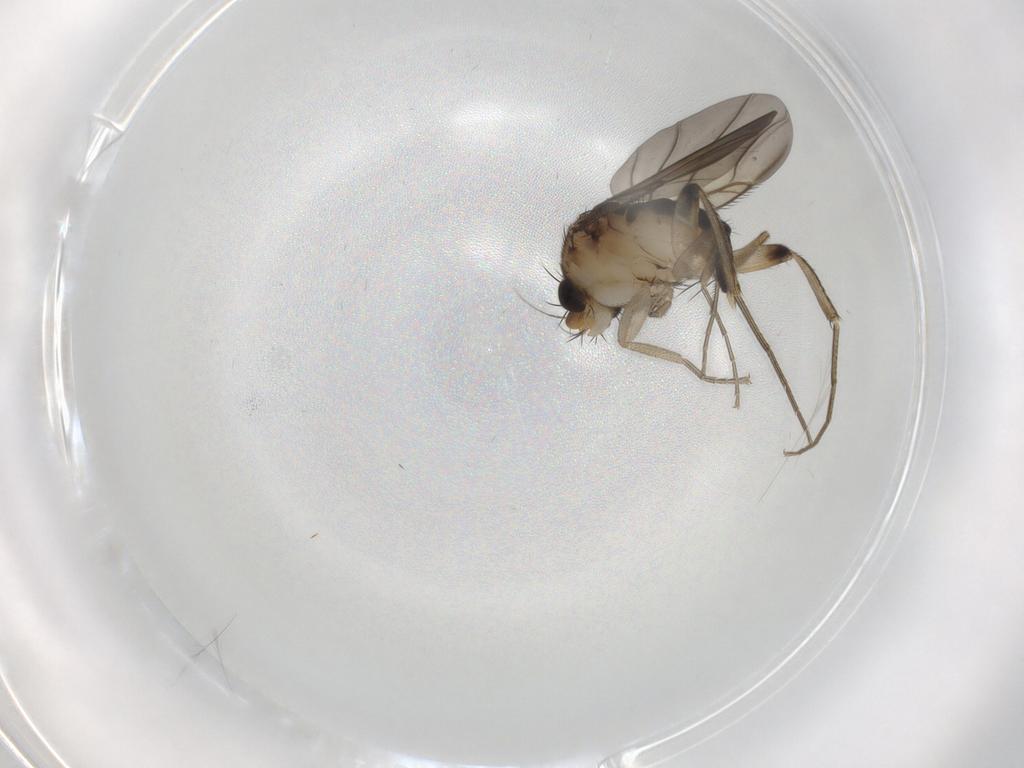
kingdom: Animalia
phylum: Arthropoda
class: Insecta
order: Diptera
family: Phoridae
